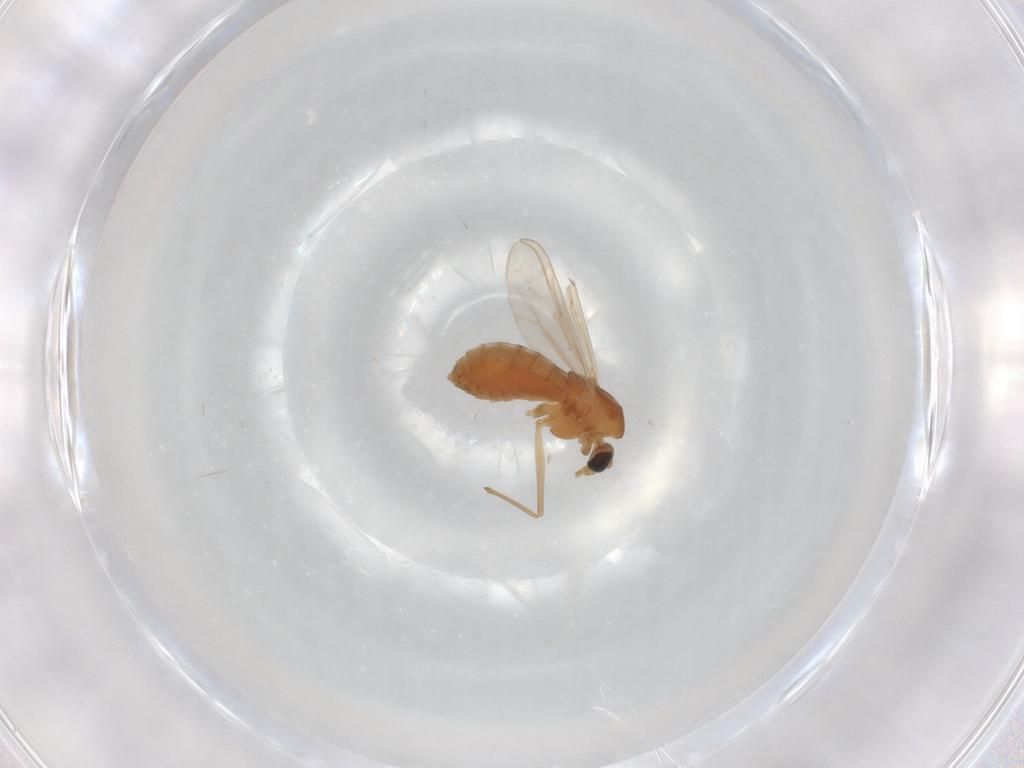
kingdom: Animalia
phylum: Arthropoda
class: Insecta
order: Diptera
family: Chironomidae
